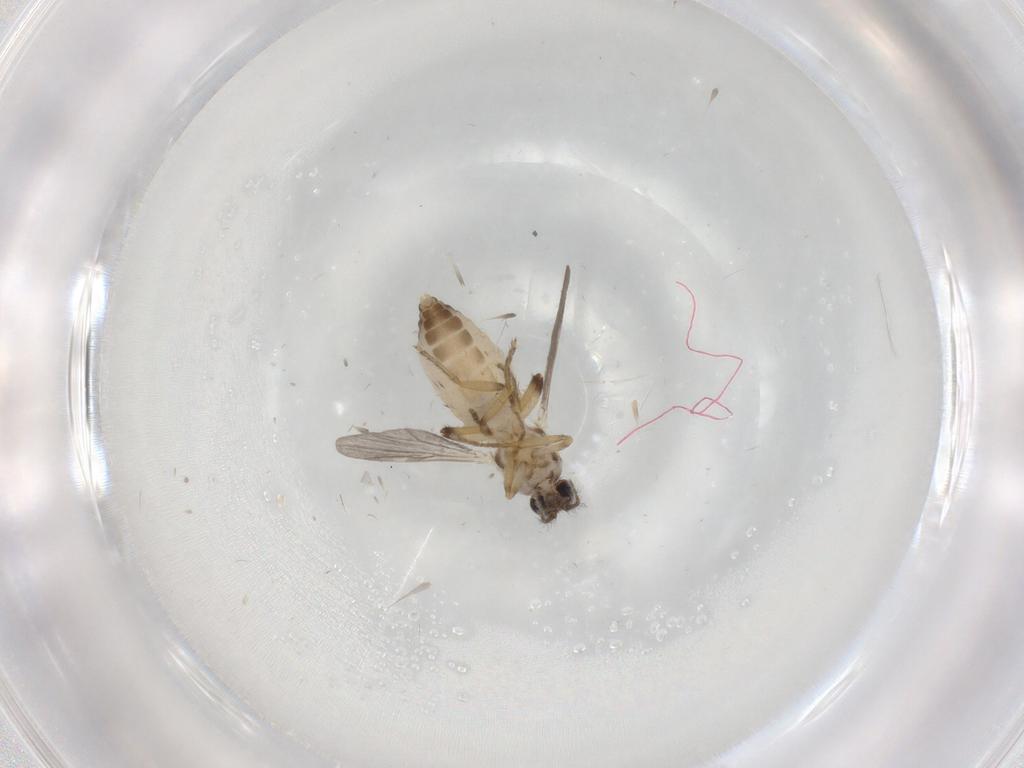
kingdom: Animalia
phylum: Arthropoda
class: Insecta
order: Diptera
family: Ceratopogonidae
